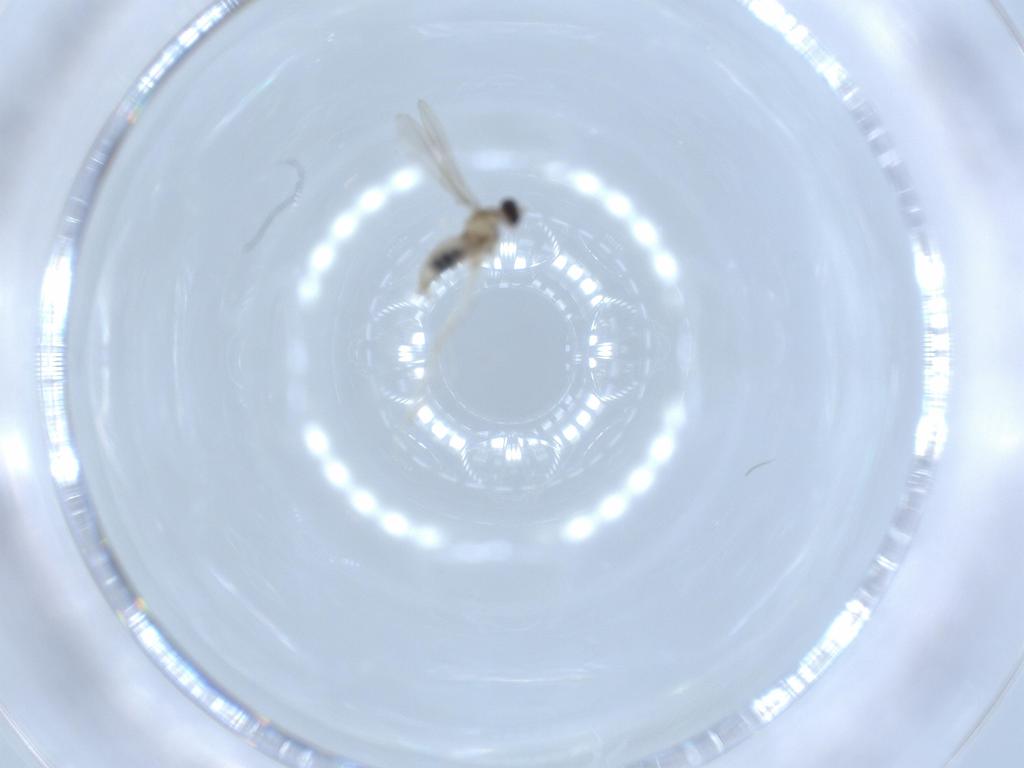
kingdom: Animalia
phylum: Arthropoda
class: Insecta
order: Diptera
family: Cecidomyiidae
